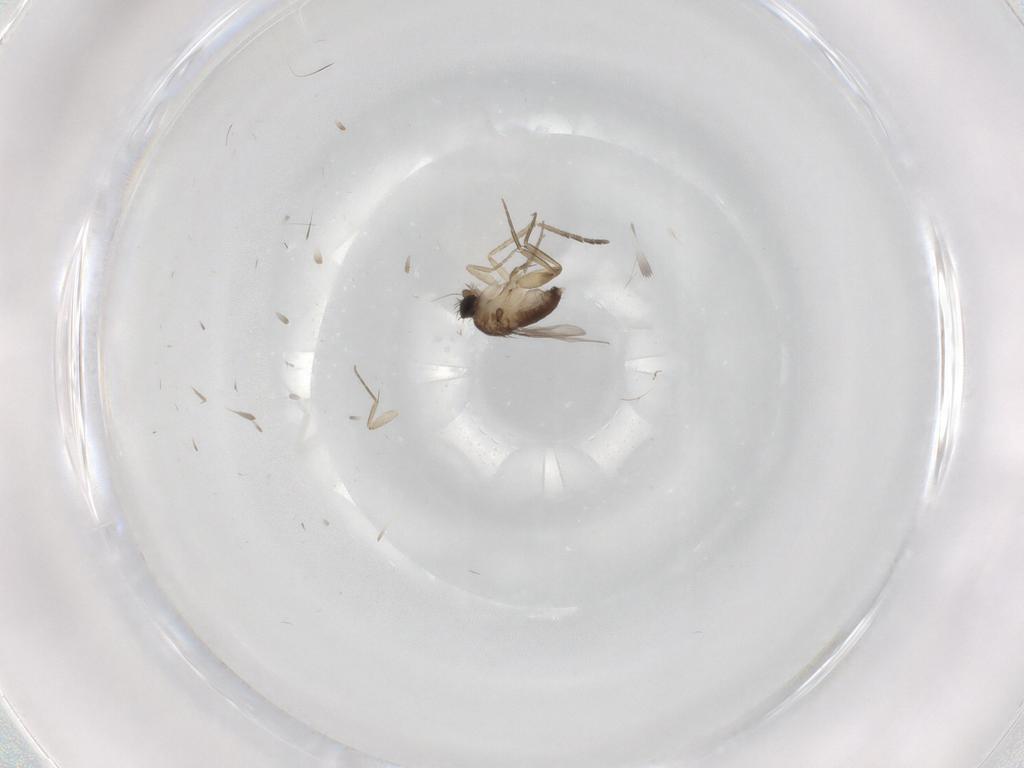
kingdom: Animalia
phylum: Arthropoda
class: Insecta
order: Diptera
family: Phoridae
